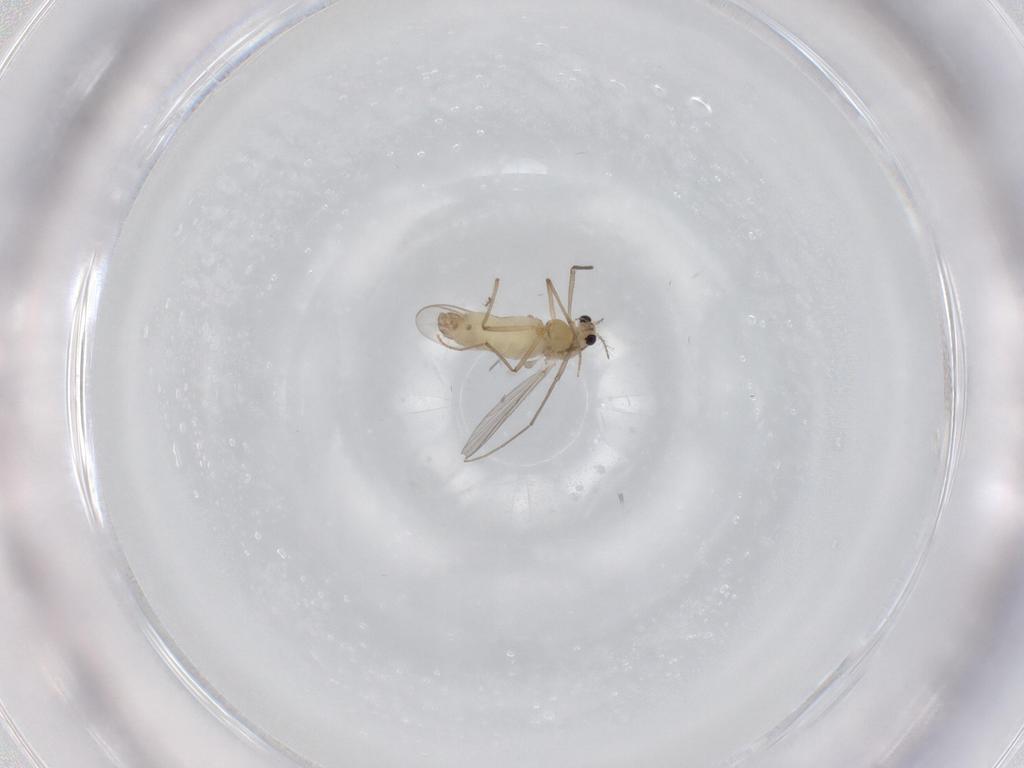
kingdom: Animalia
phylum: Arthropoda
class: Insecta
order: Diptera
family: Chironomidae
